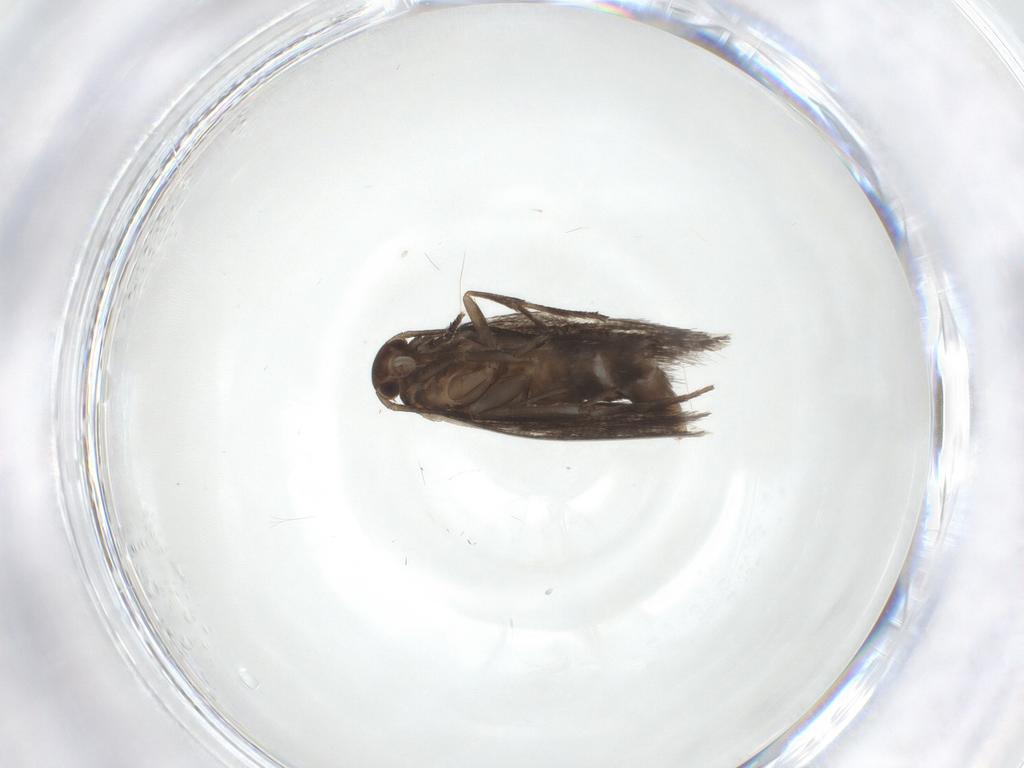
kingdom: Animalia
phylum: Arthropoda
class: Insecta
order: Lepidoptera
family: Elachistidae
